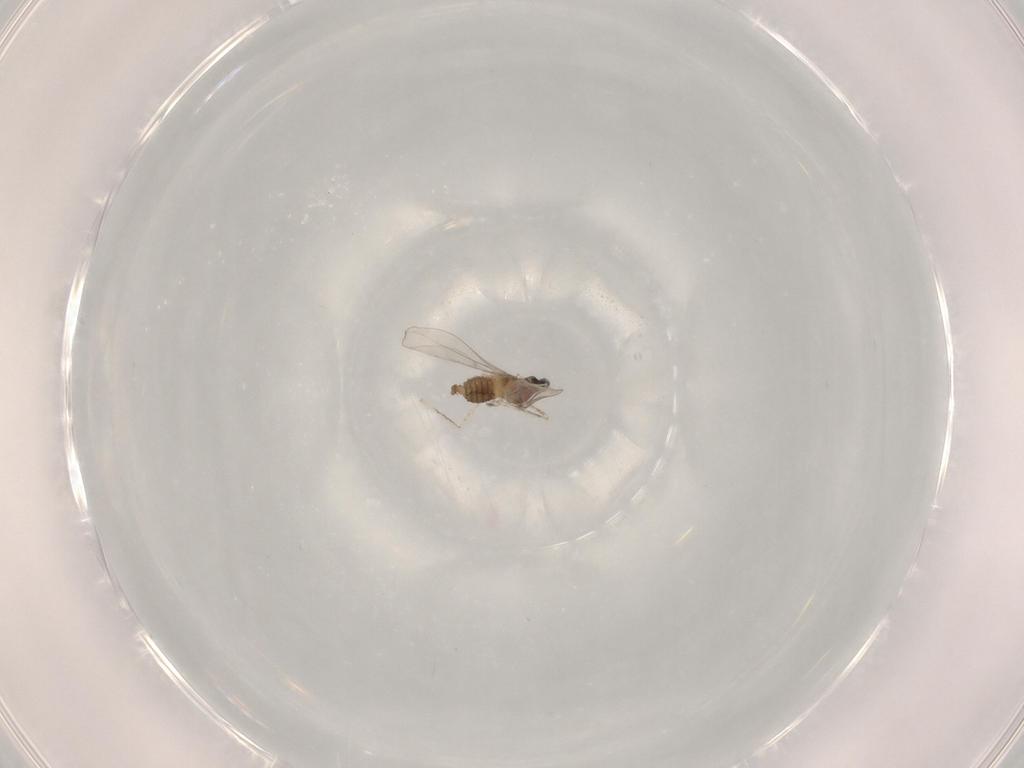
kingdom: Animalia
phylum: Arthropoda
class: Insecta
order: Diptera
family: Cecidomyiidae
